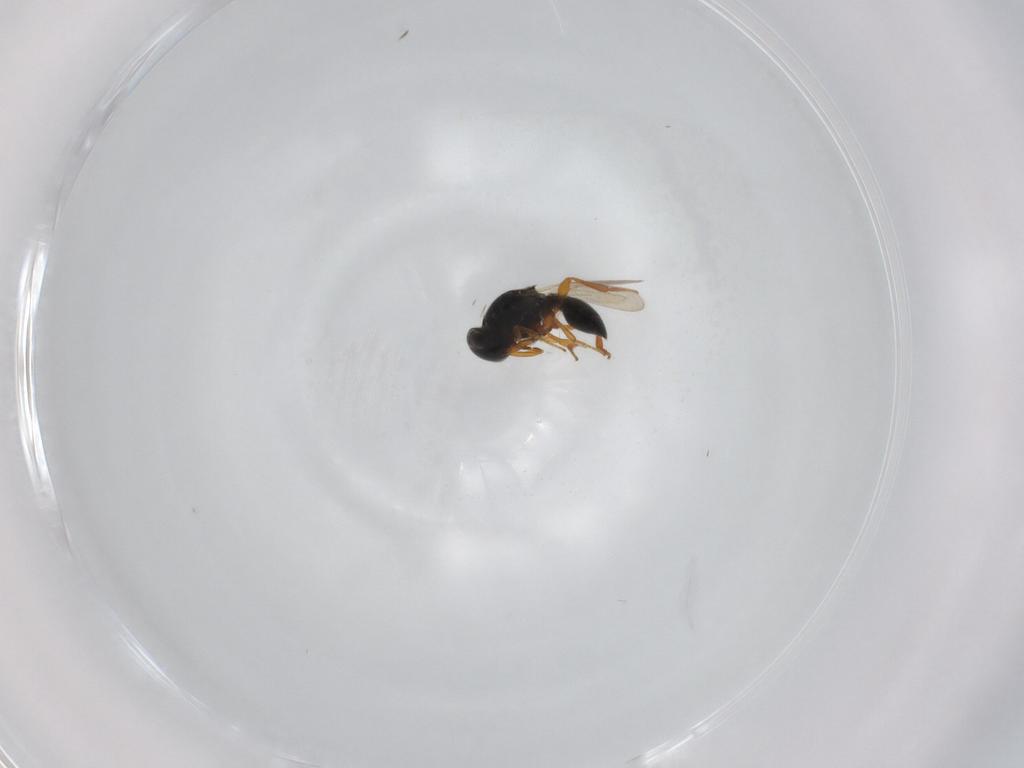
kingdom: Animalia
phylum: Arthropoda
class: Insecta
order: Hymenoptera
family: Platygastridae
